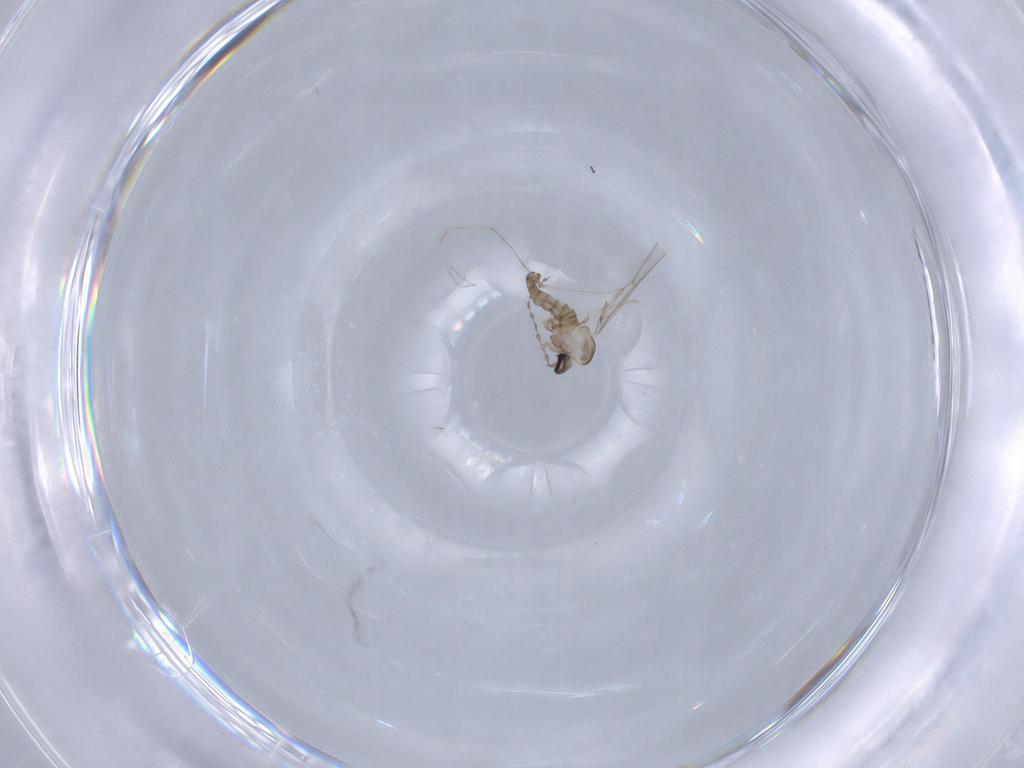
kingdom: Animalia
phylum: Arthropoda
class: Insecta
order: Diptera
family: Cecidomyiidae
